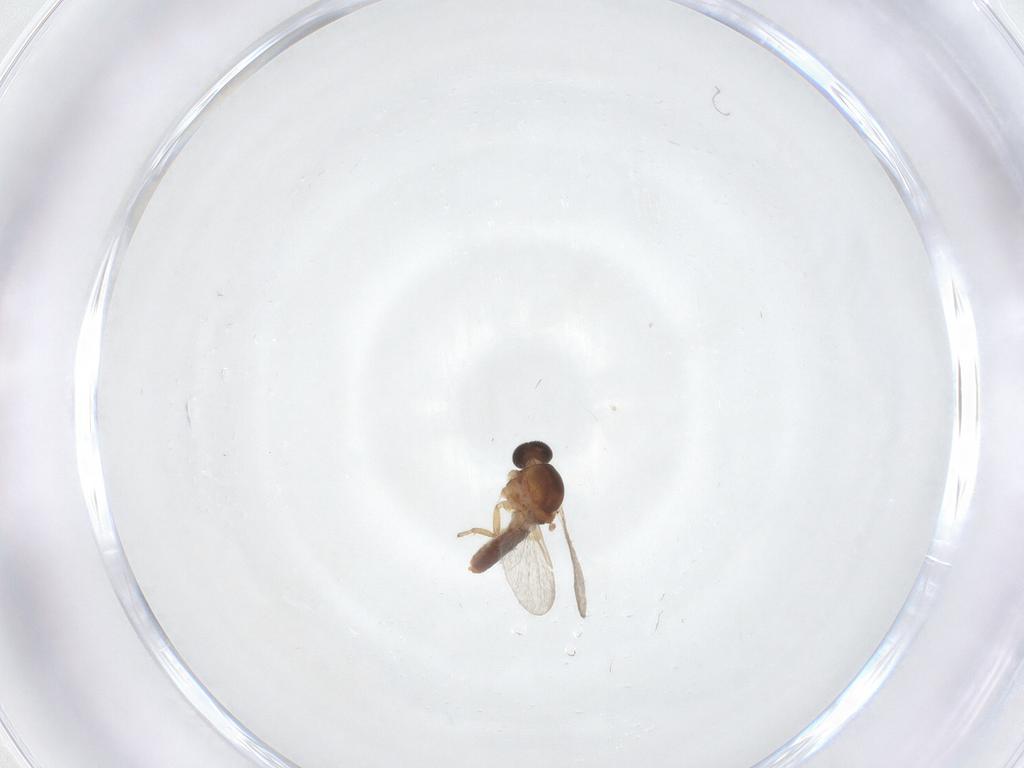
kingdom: Animalia
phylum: Arthropoda
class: Insecta
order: Diptera
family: Ceratopogonidae
